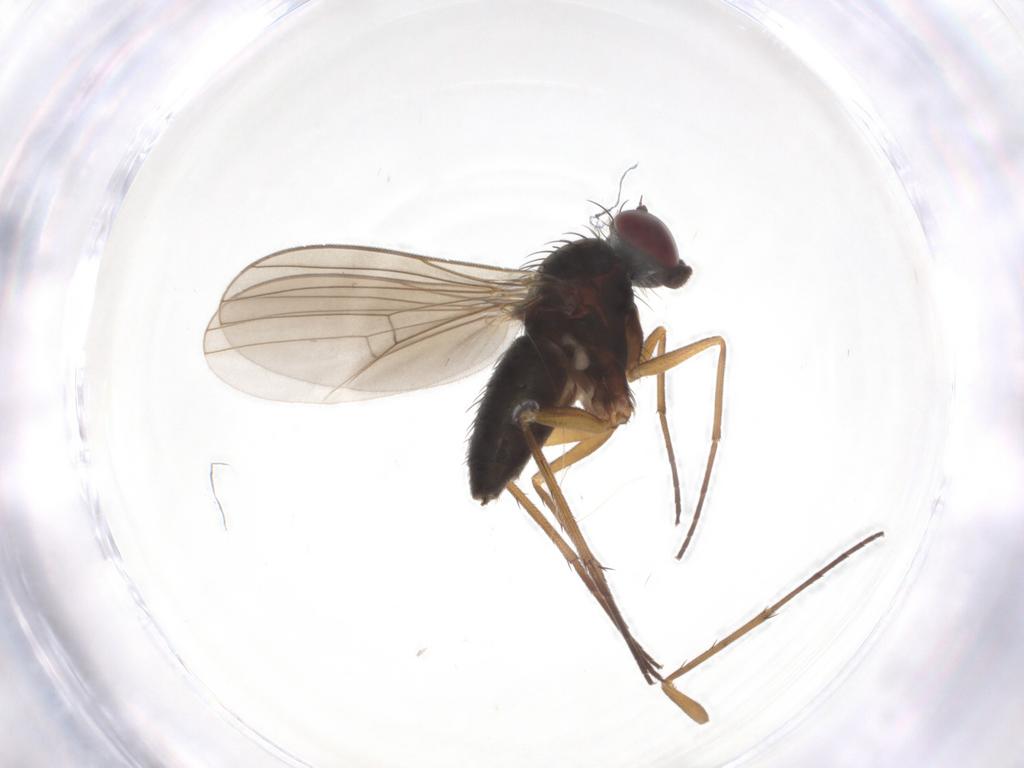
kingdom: Animalia
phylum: Arthropoda
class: Insecta
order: Diptera
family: Dolichopodidae
